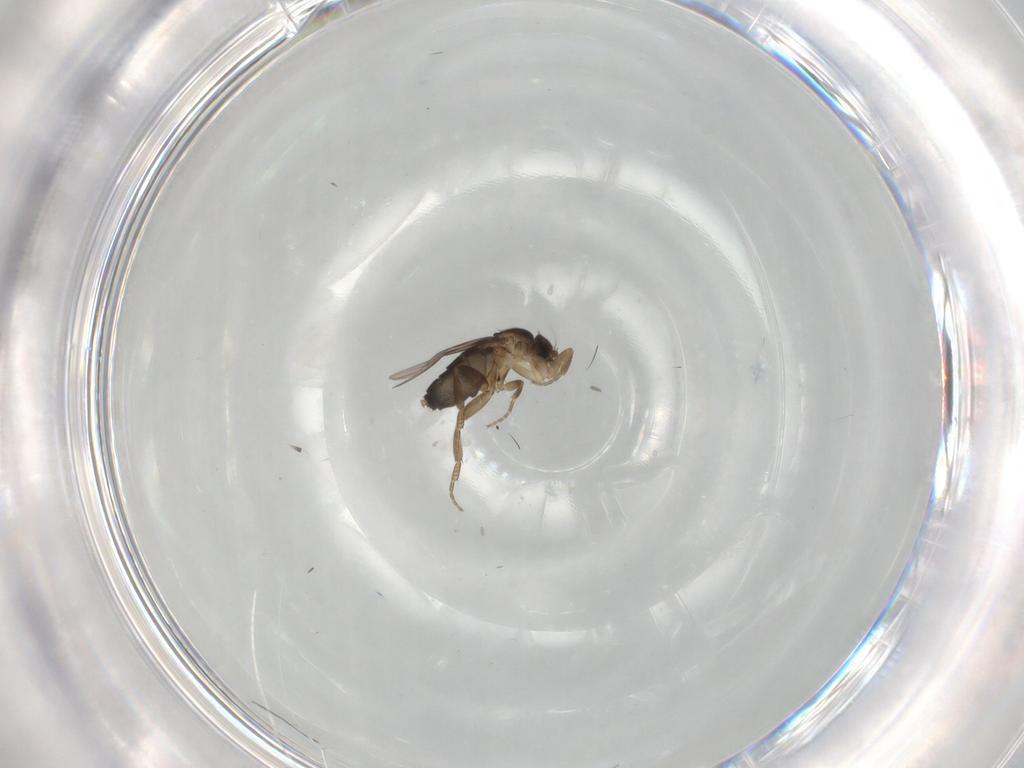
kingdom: Animalia
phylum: Arthropoda
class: Insecta
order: Diptera
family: Phoridae
